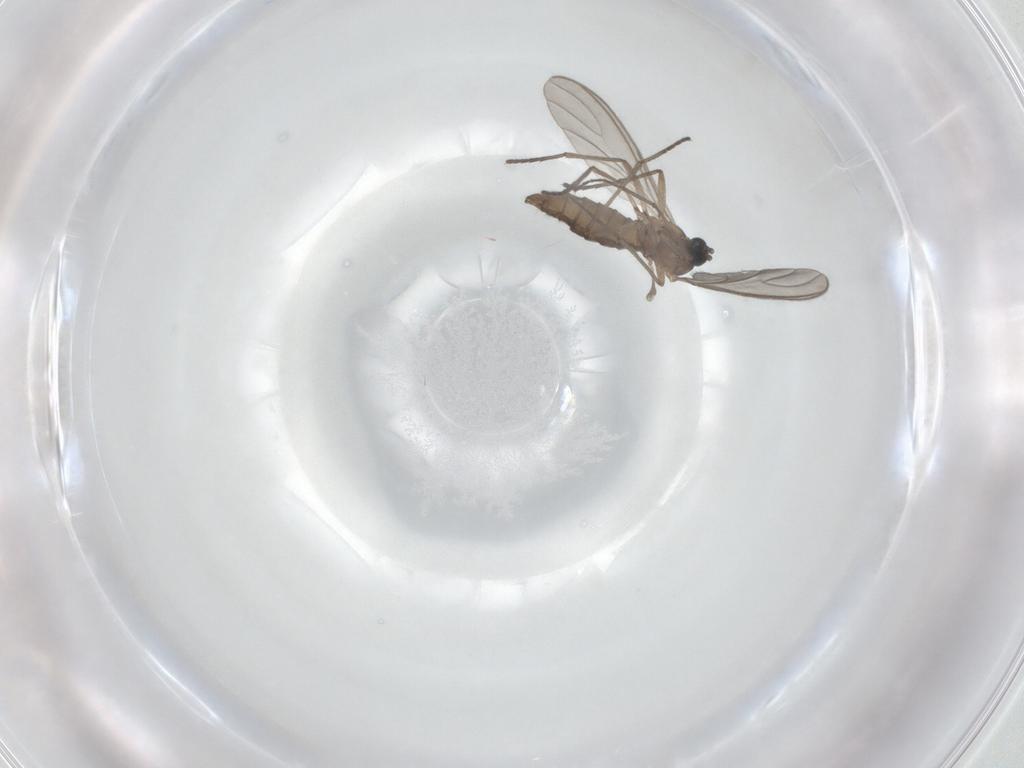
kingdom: Animalia
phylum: Arthropoda
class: Insecta
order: Diptera
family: Sciaridae
